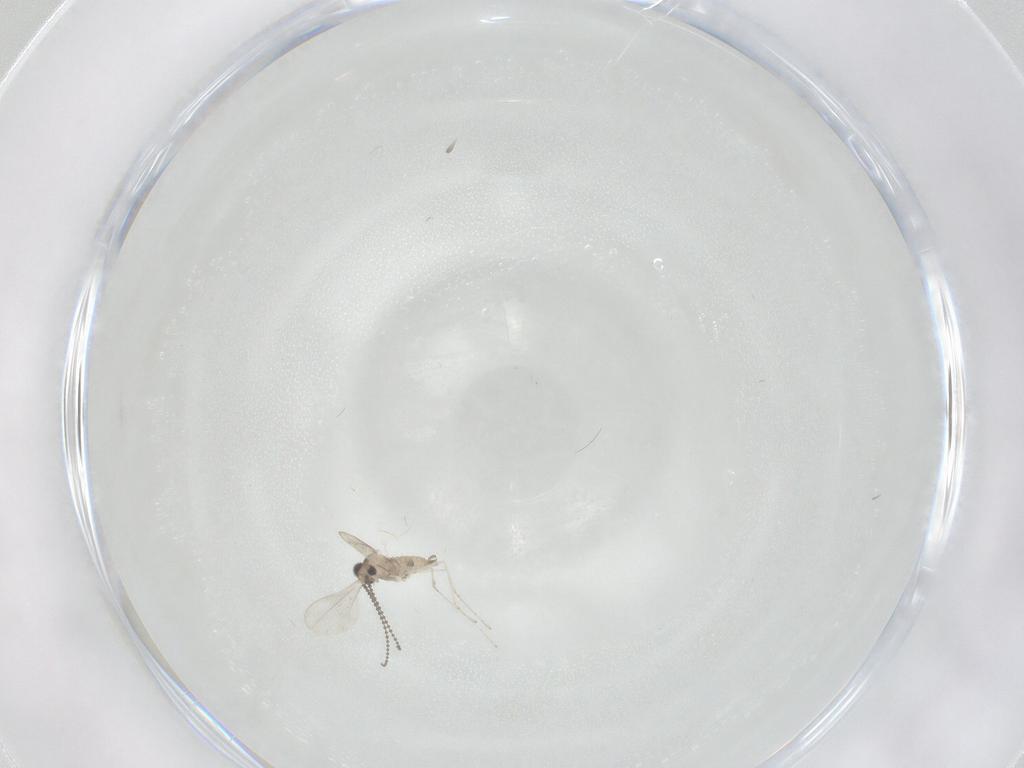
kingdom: Animalia
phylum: Arthropoda
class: Insecta
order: Diptera
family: Cecidomyiidae
